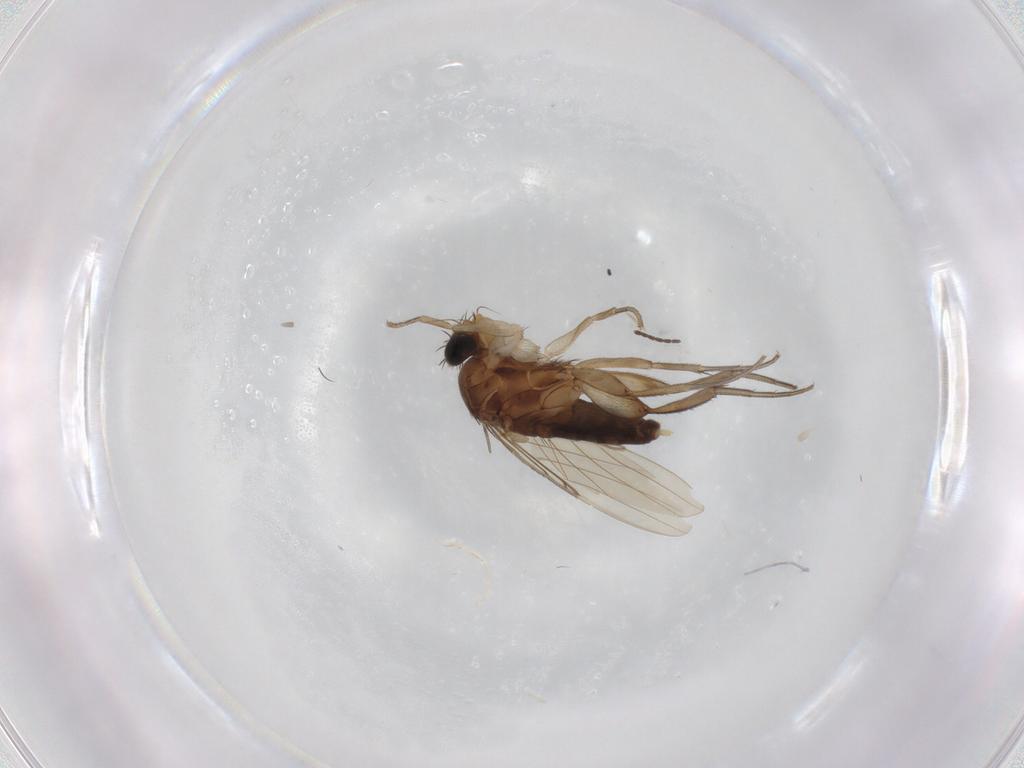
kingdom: Animalia
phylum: Arthropoda
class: Insecta
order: Diptera
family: Phoridae
